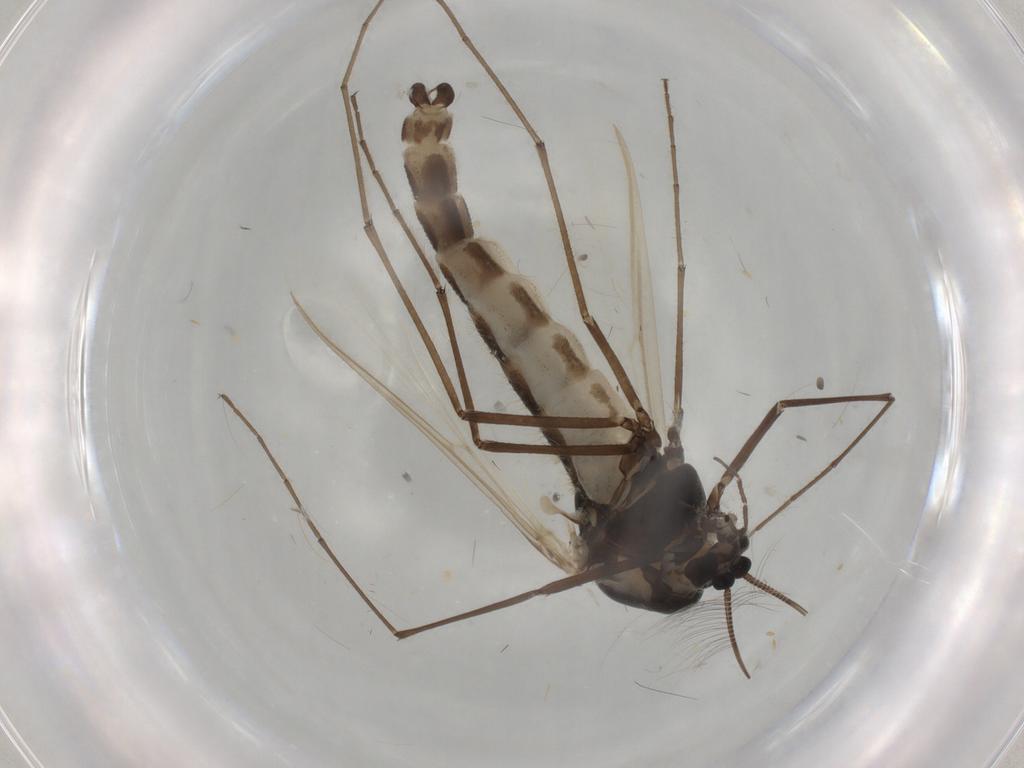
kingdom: Animalia
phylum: Arthropoda
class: Insecta
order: Diptera
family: Chironomidae
